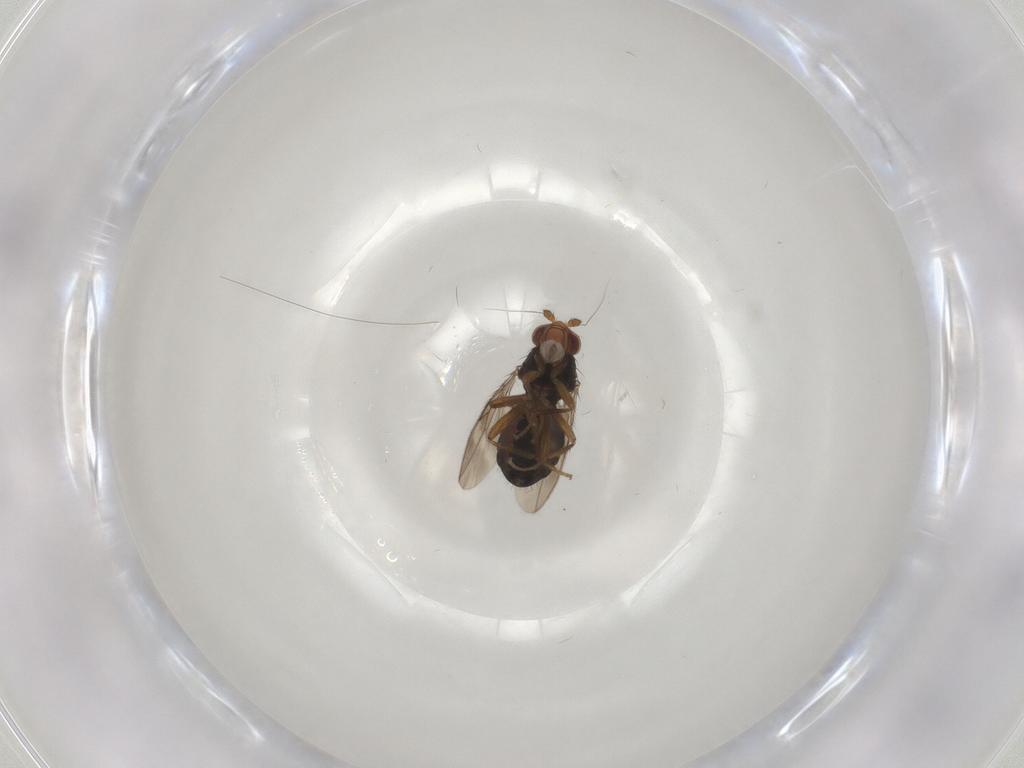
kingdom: Animalia
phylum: Arthropoda
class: Insecta
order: Diptera
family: Sphaeroceridae
